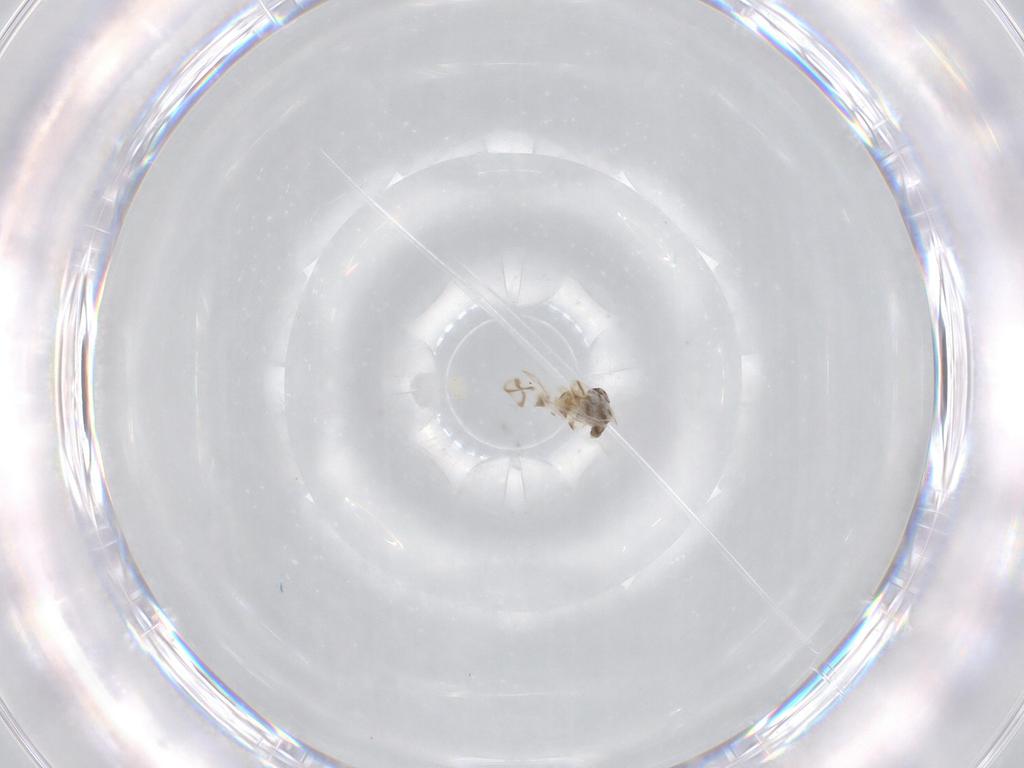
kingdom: Animalia
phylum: Arthropoda
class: Insecta
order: Hemiptera
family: Aleyrodidae
